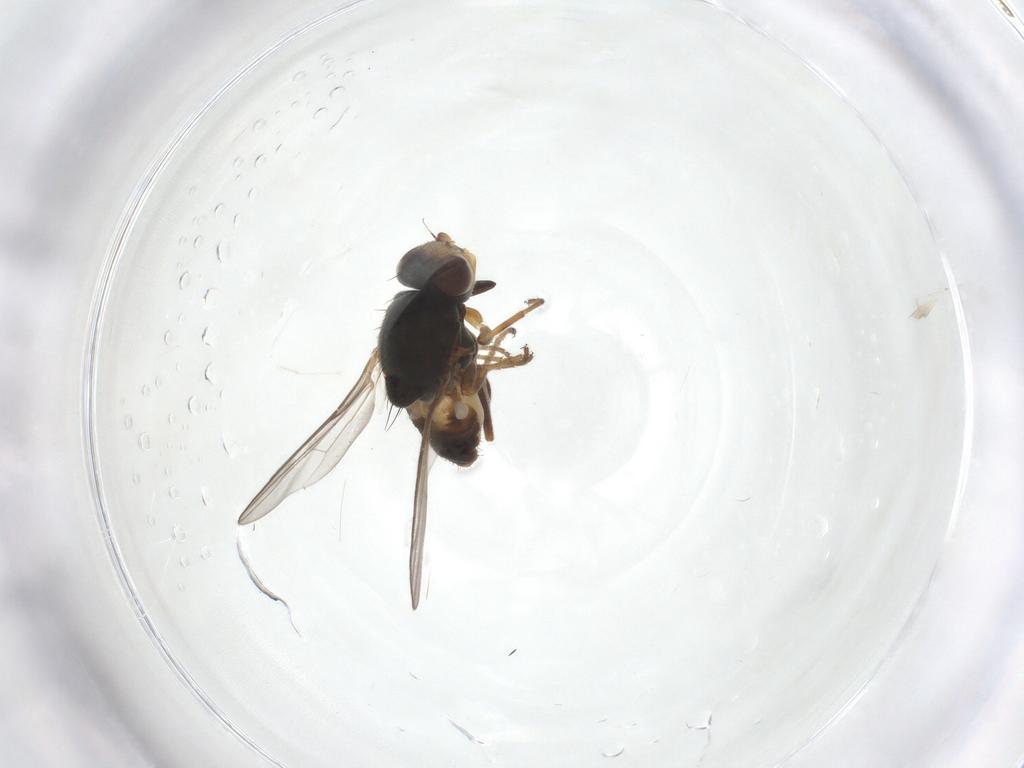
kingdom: Animalia
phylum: Arthropoda
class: Insecta
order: Diptera
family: Chloropidae
